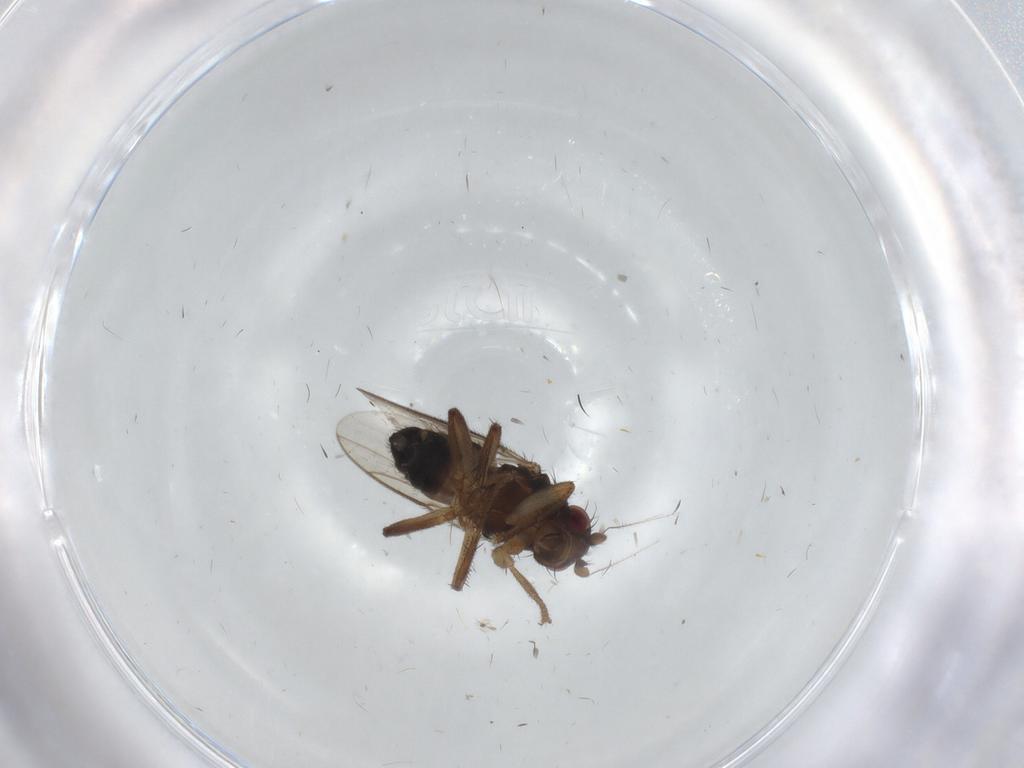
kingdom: Animalia
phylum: Arthropoda
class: Insecta
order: Diptera
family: Sphaeroceridae
